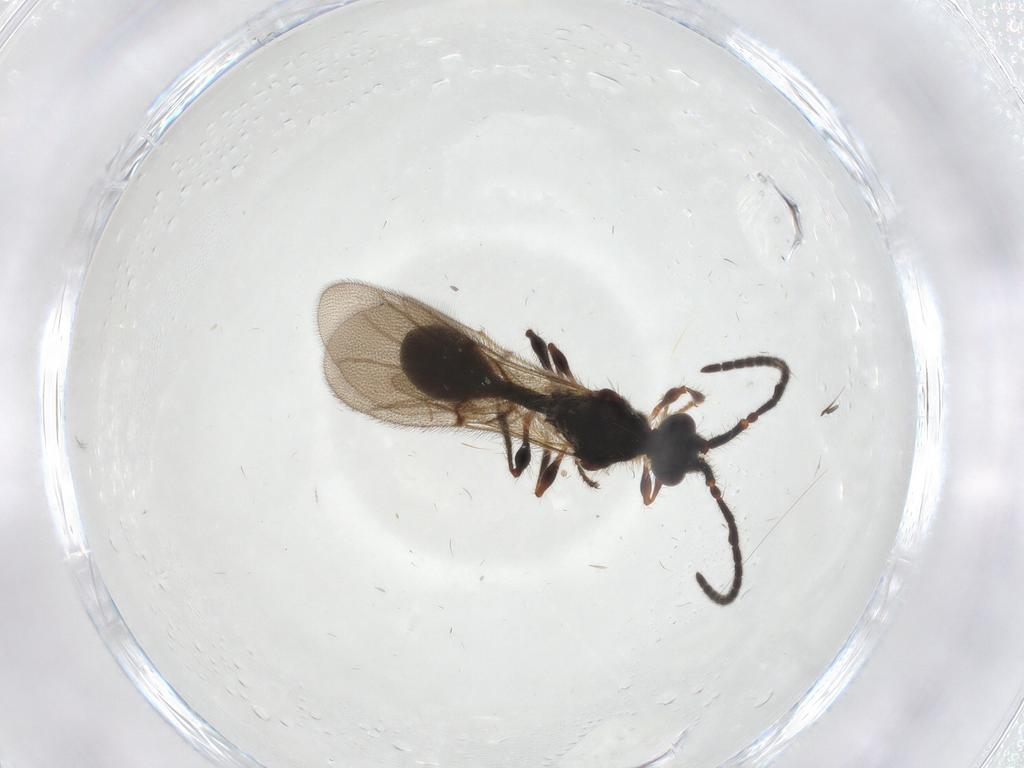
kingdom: Animalia
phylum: Arthropoda
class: Insecta
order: Hymenoptera
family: Diapriidae
